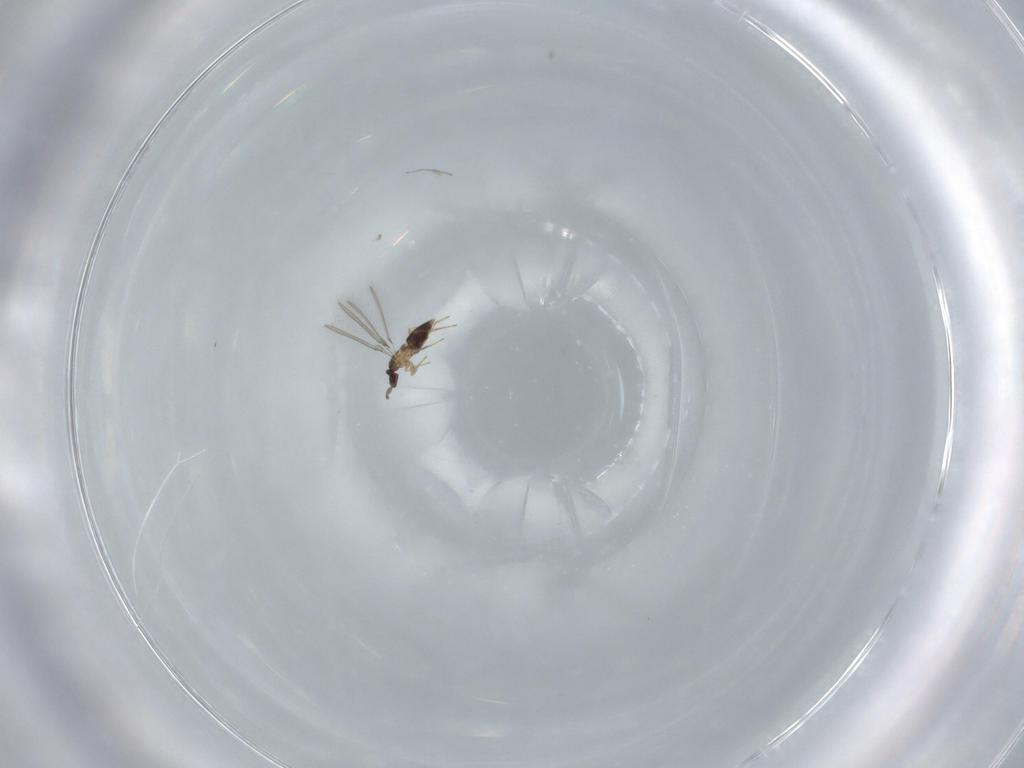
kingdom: Animalia
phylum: Arthropoda
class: Insecta
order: Hymenoptera
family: Mymaridae
